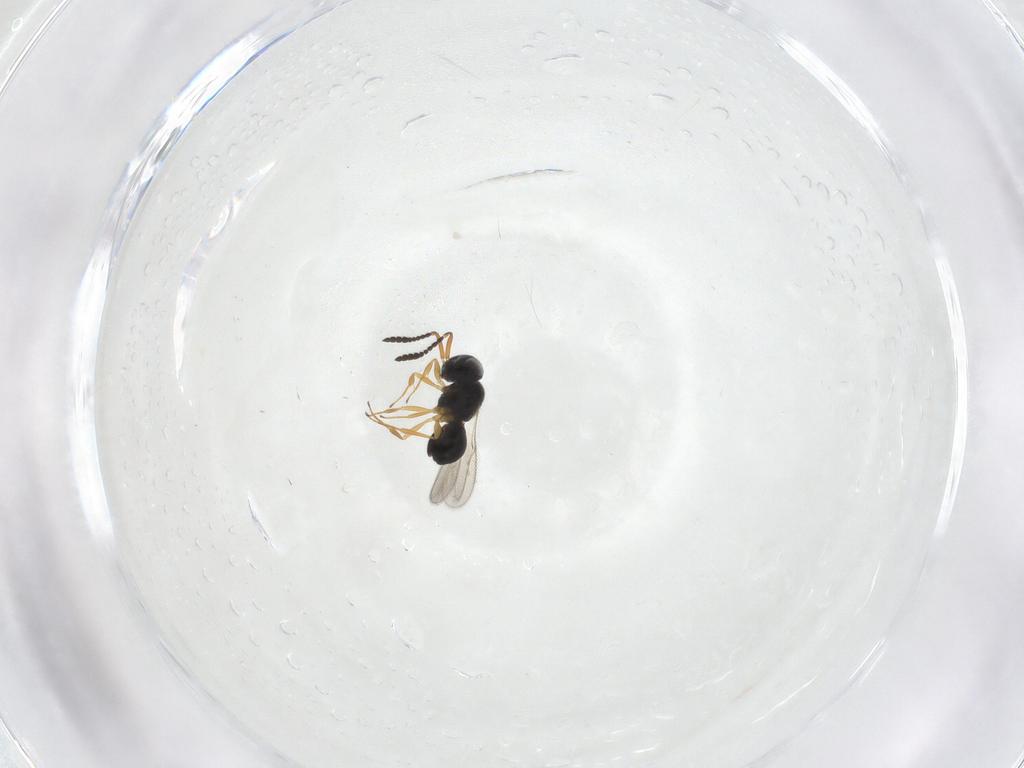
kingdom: Animalia
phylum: Arthropoda
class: Insecta
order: Hymenoptera
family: Scelionidae
